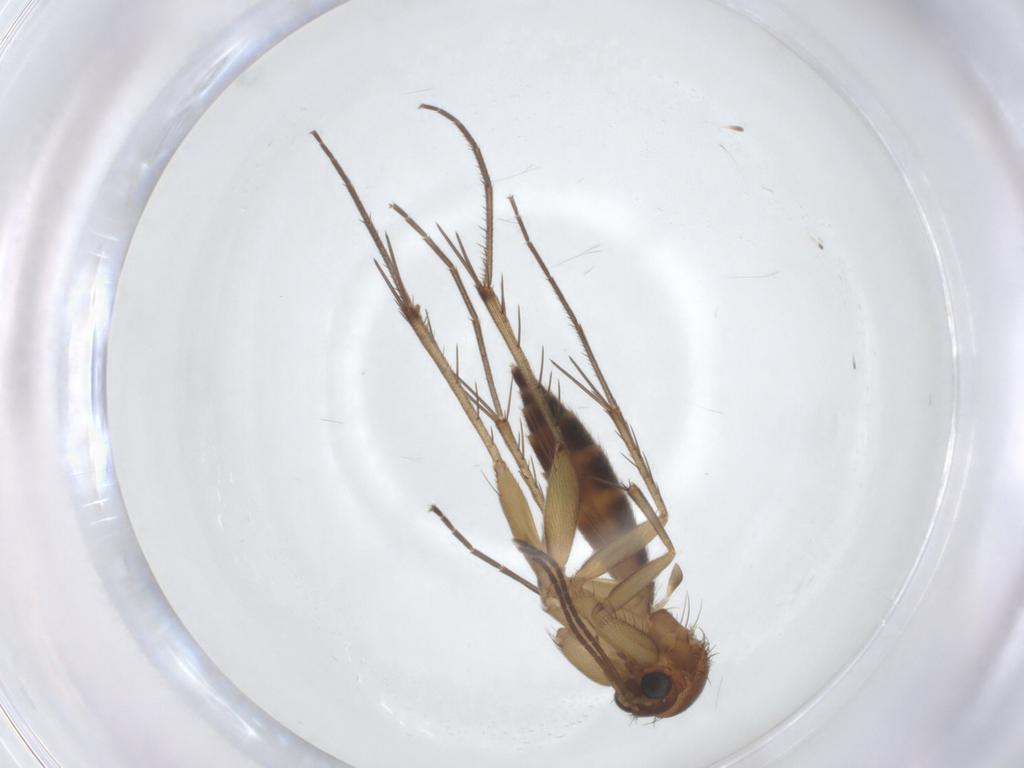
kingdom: Animalia
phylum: Arthropoda
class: Insecta
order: Diptera
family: Mycetophilidae
